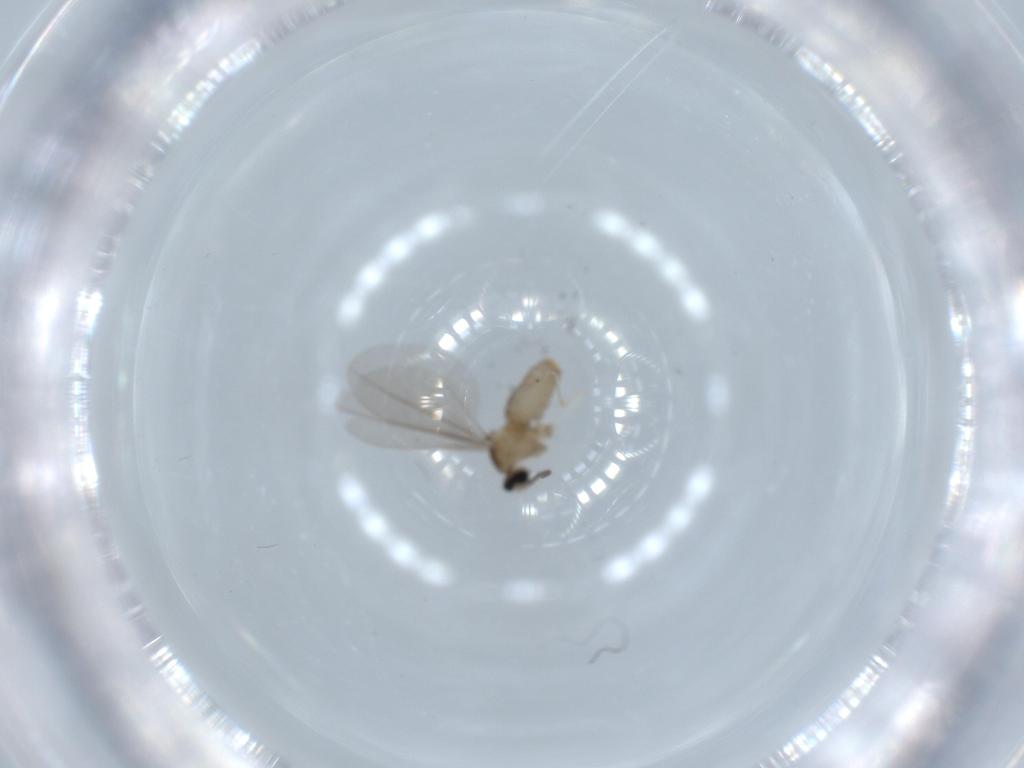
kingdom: Animalia
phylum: Arthropoda
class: Insecta
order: Diptera
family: Cecidomyiidae
